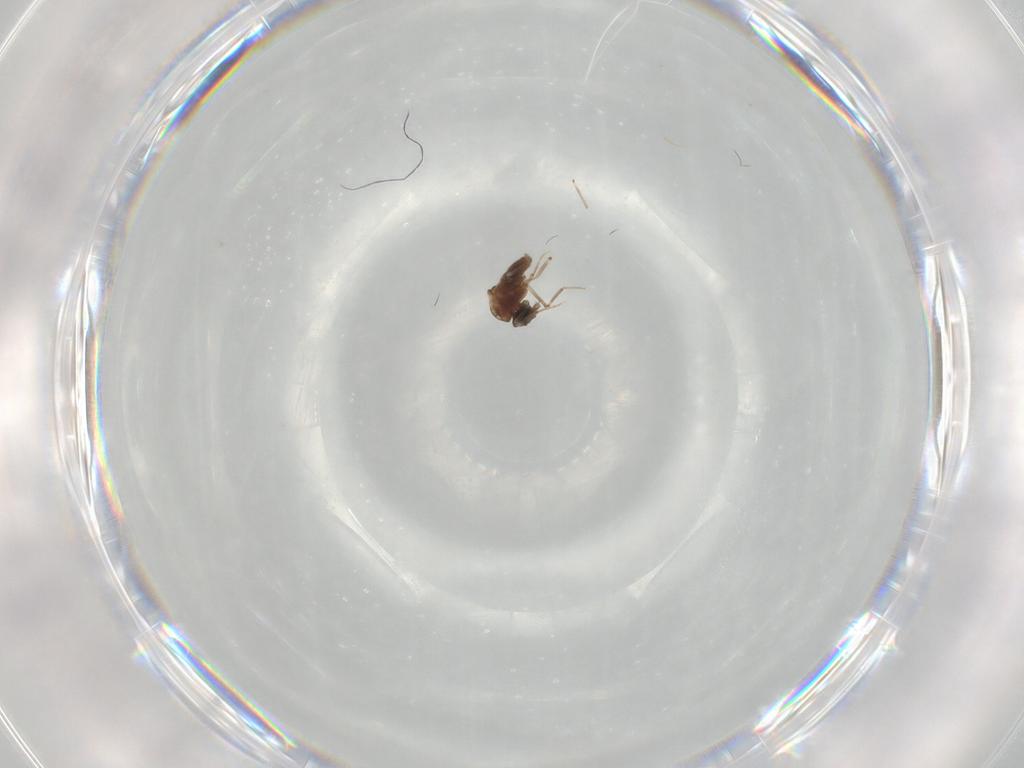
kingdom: Animalia
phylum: Arthropoda
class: Insecta
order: Diptera
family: Ceratopogonidae
